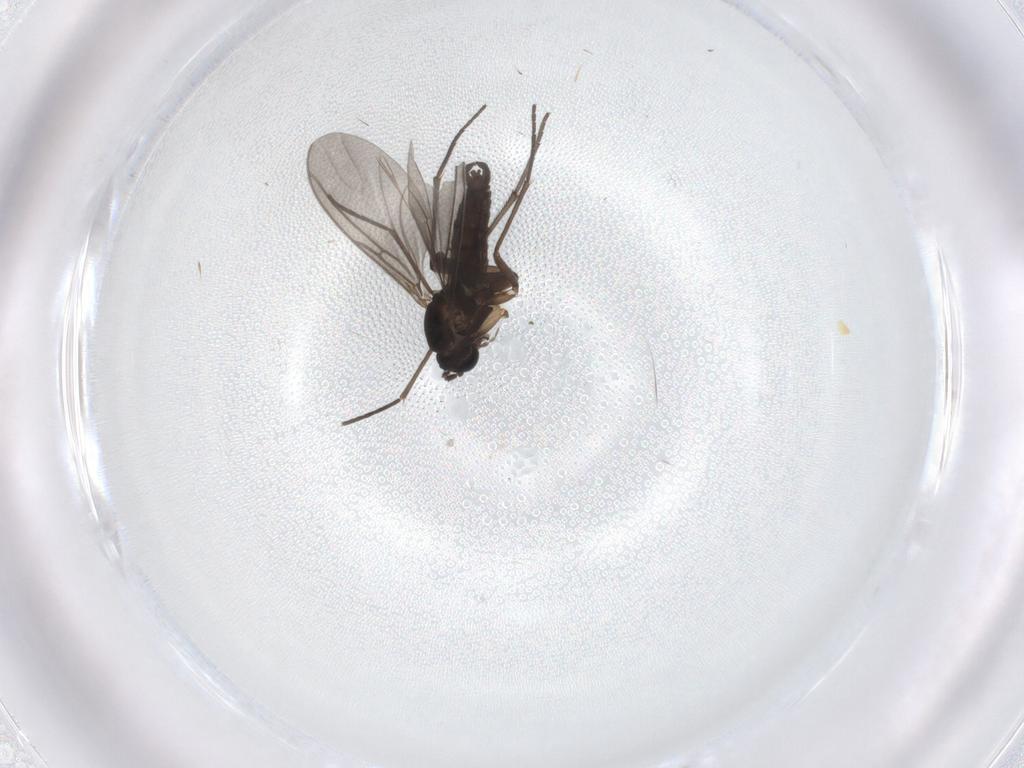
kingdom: Animalia
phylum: Arthropoda
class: Insecta
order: Diptera
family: Sciaridae
